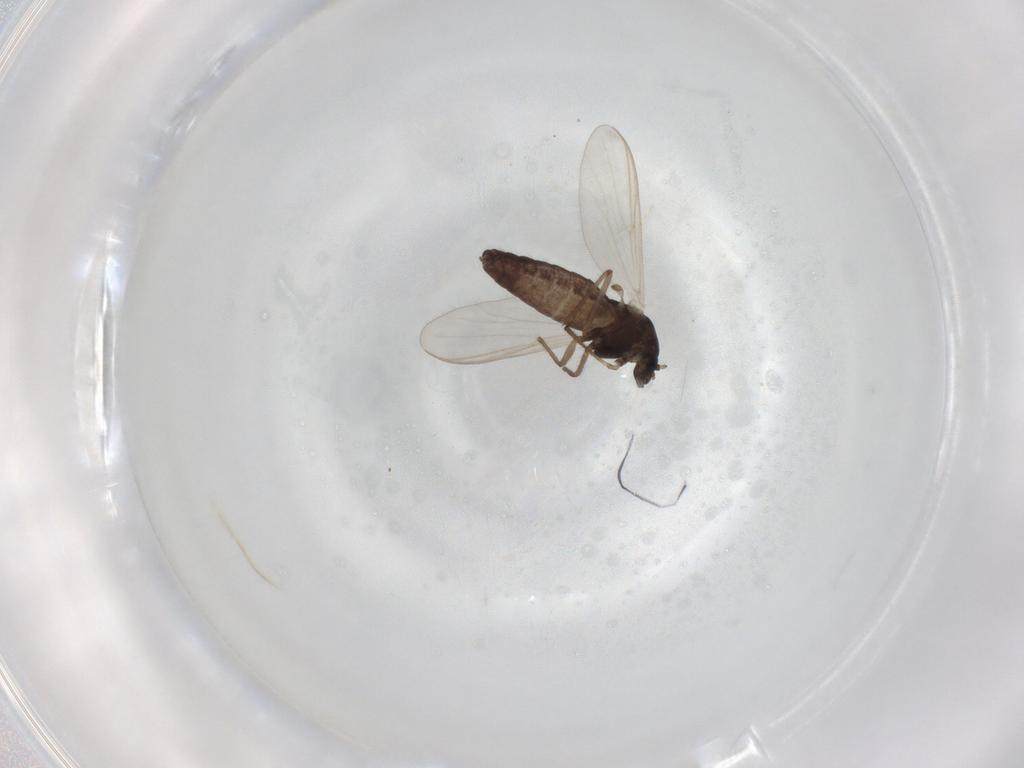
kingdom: Animalia
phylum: Arthropoda
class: Insecta
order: Diptera
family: Chironomidae
